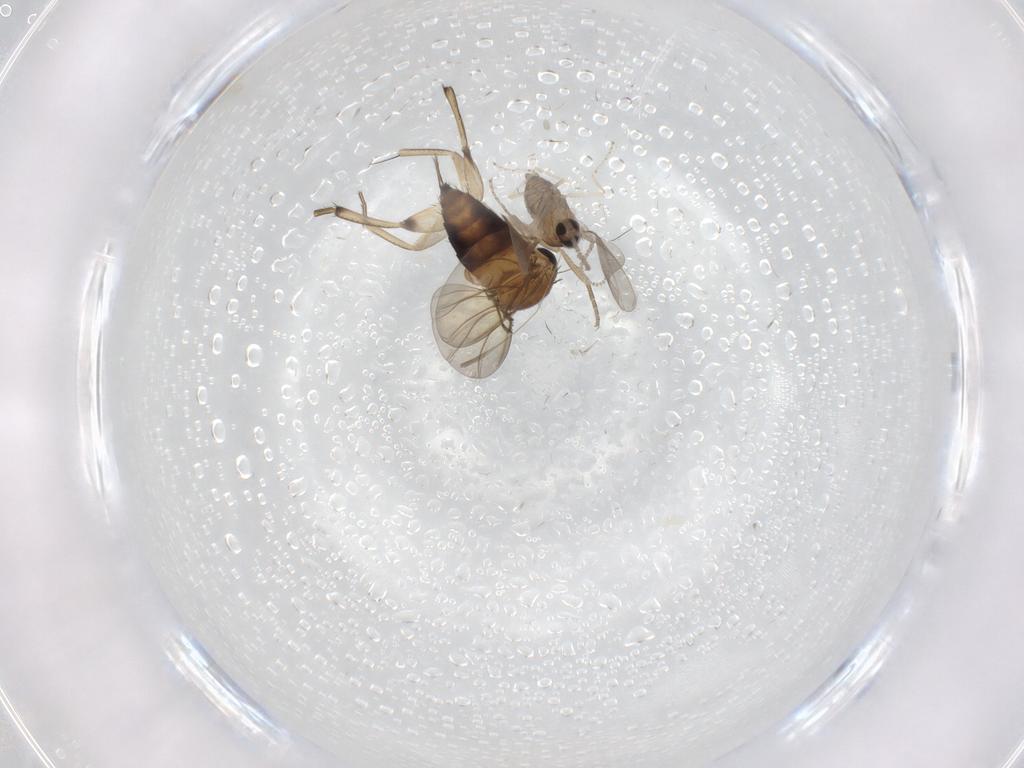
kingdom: Animalia
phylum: Arthropoda
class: Insecta
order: Diptera
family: Cecidomyiidae
